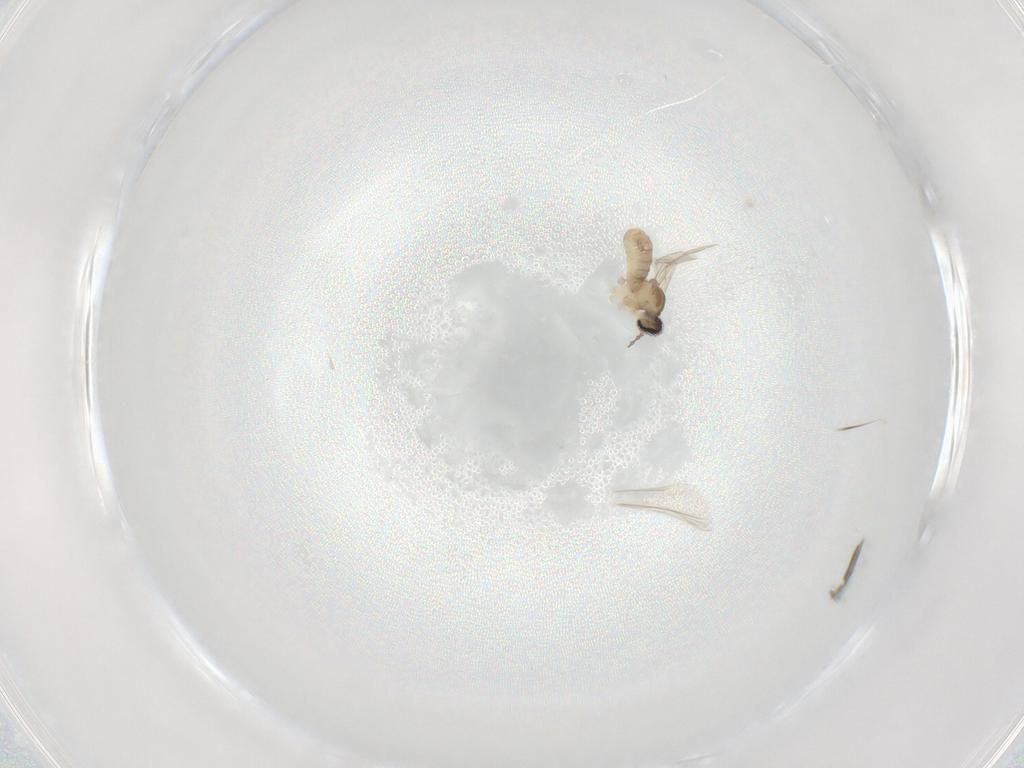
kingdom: Animalia
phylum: Arthropoda
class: Insecta
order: Diptera
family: Cecidomyiidae
